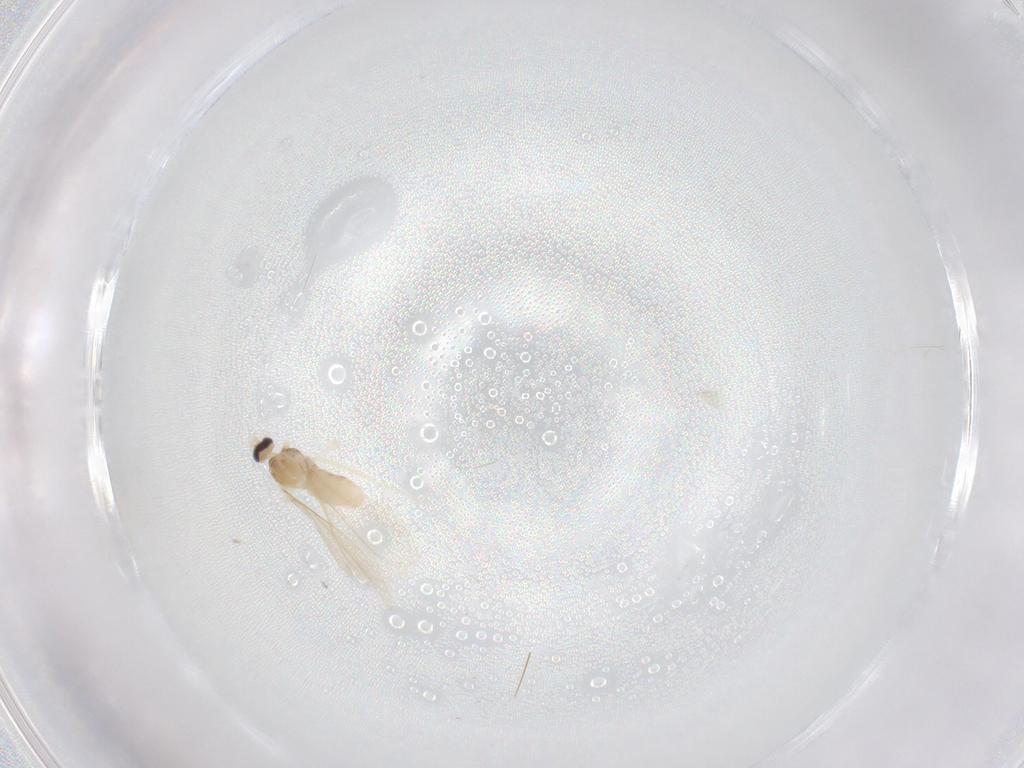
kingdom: Animalia
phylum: Arthropoda
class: Insecta
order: Diptera
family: Cecidomyiidae
